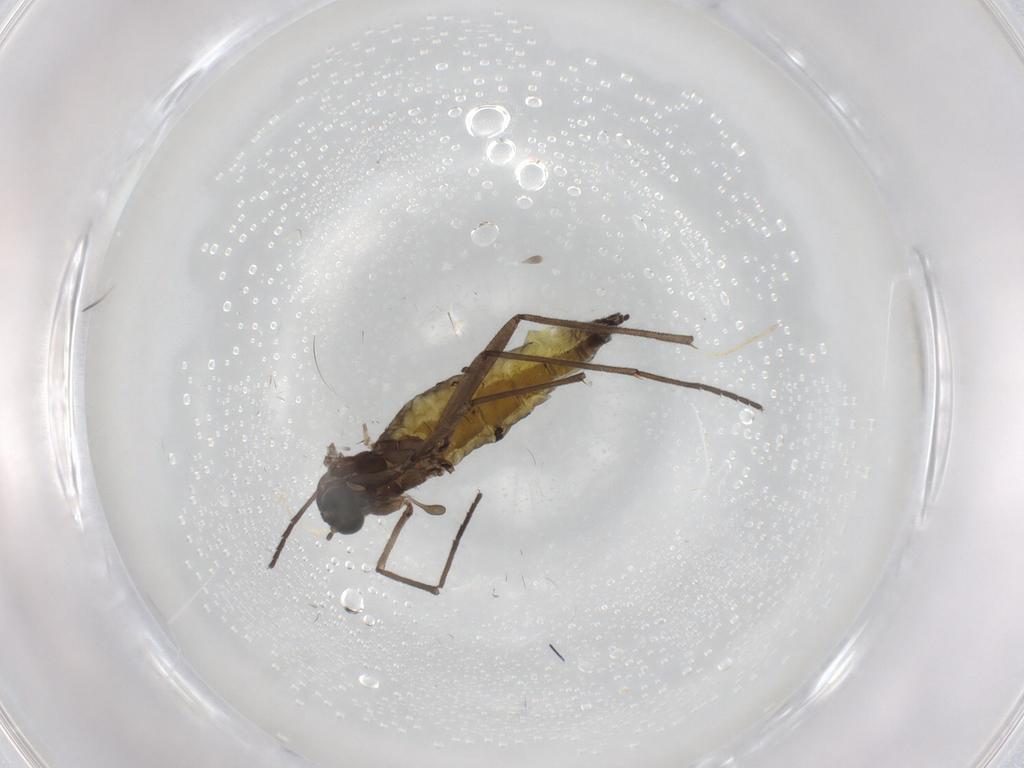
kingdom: Animalia
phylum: Arthropoda
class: Insecta
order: Diptera
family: Sciaridae
